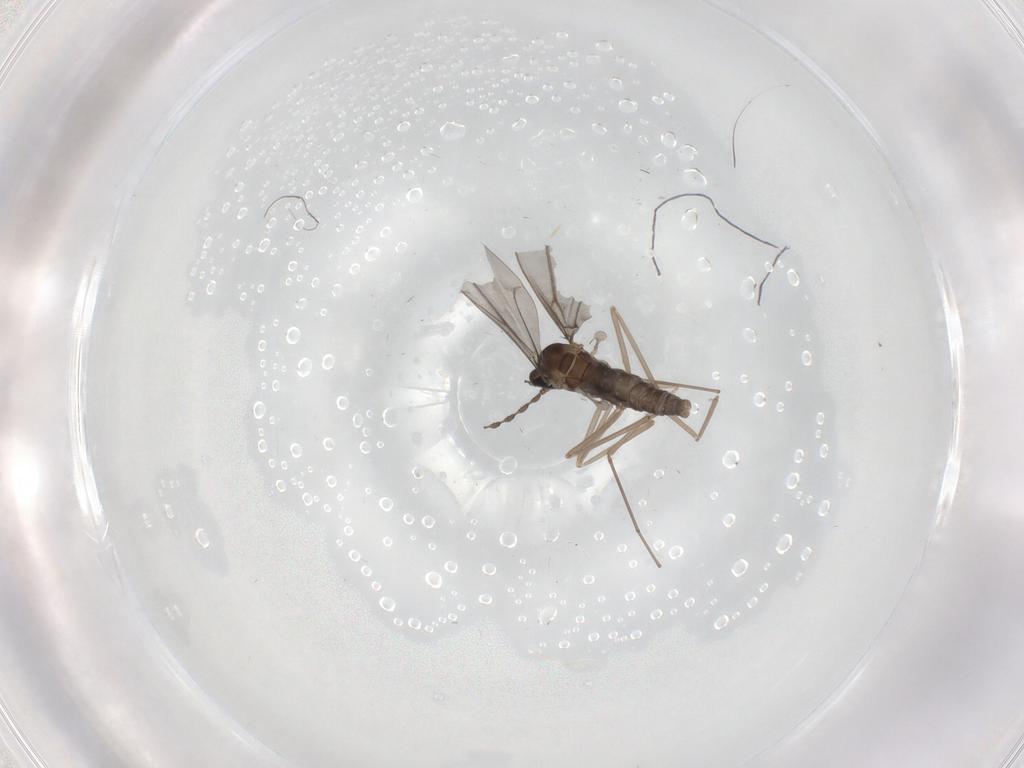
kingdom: Animalia
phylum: Arthropoda
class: Insecta
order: Diptera
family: Cecidomyiidae
